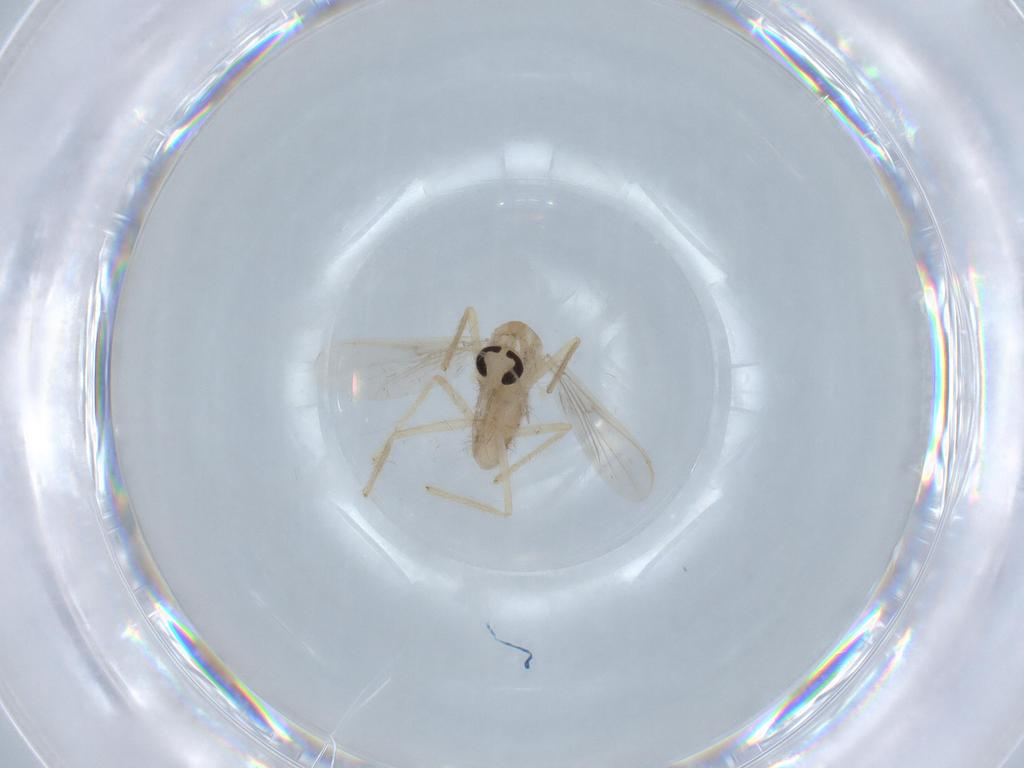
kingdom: Animalia
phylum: Arthropoda
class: Insecta
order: Diptera
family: Chironomidae
